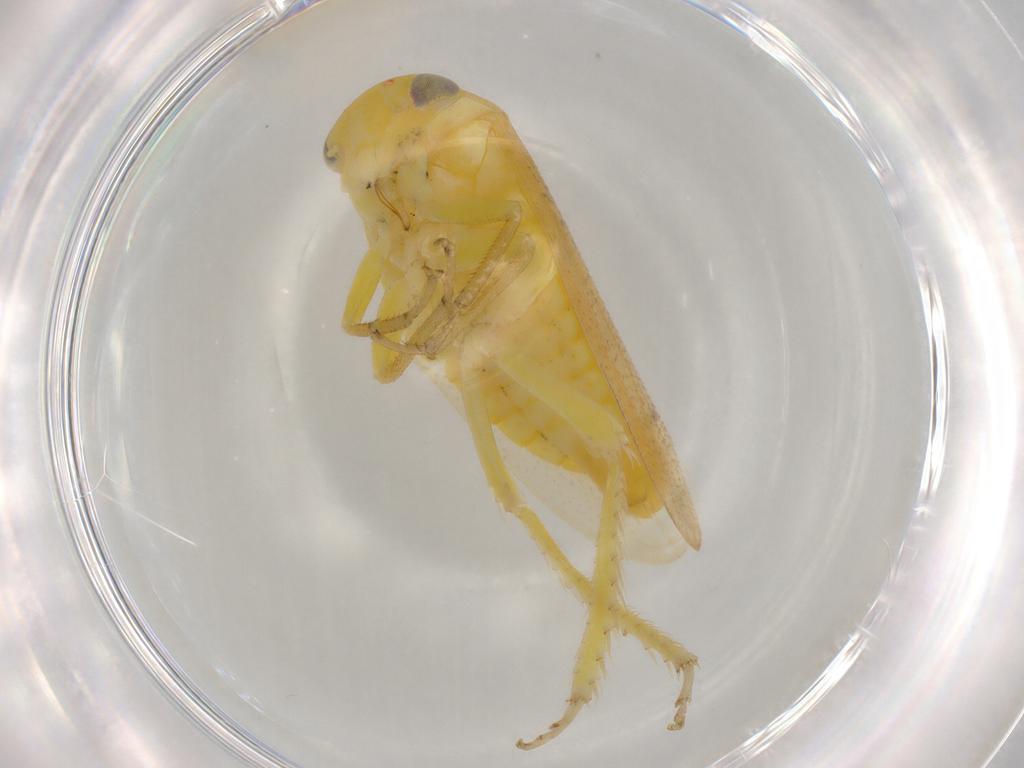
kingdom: Animalia
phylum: Arthropoda
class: Insecta
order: Hemiptera
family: Cicadellidae
